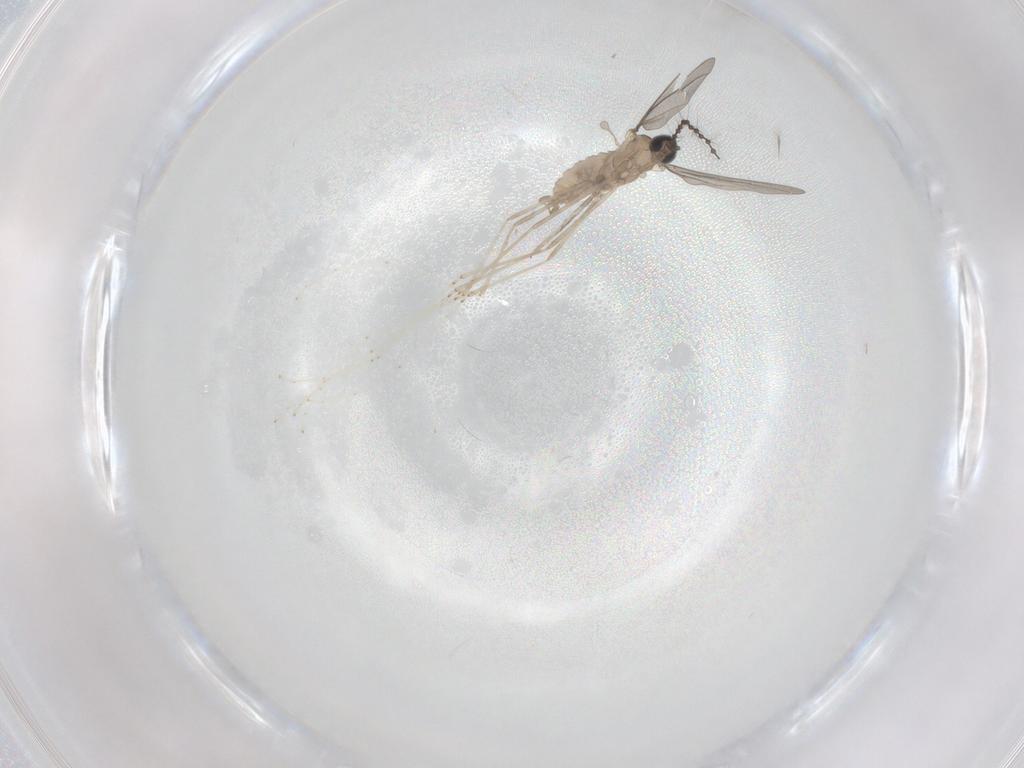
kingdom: Animalia
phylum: Arthropoda
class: Insecta
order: Diptera
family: Cecidomyiidae
